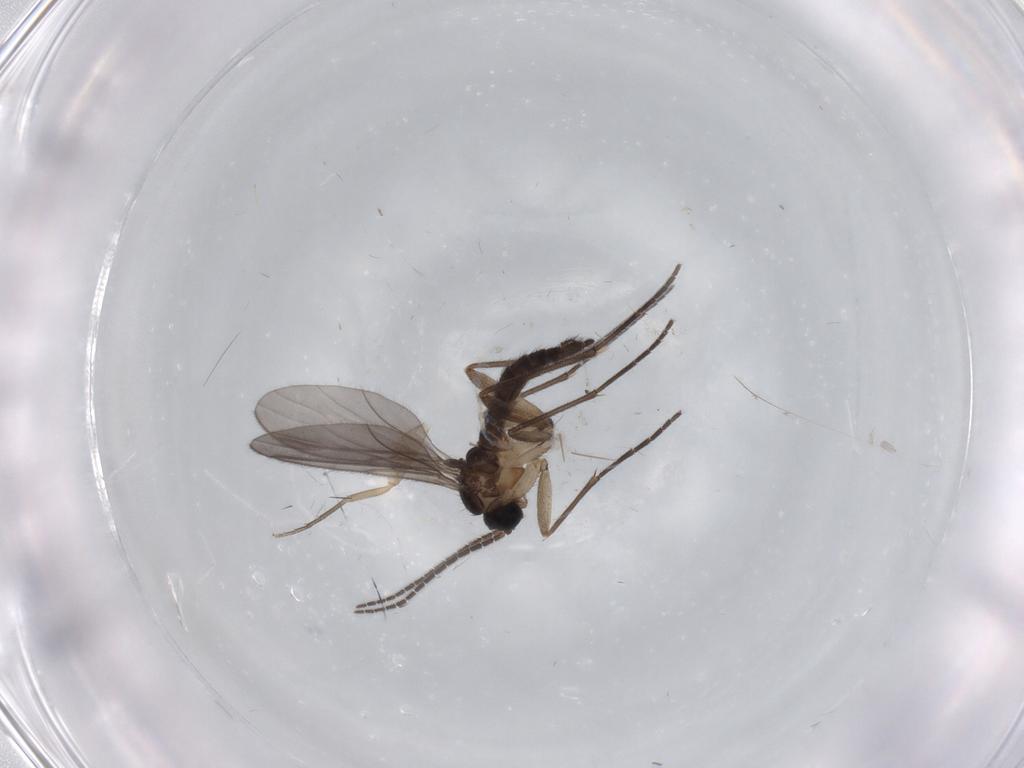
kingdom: Animalia
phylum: Arthropoda
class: Insecta
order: Diptera
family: Sciaridae
